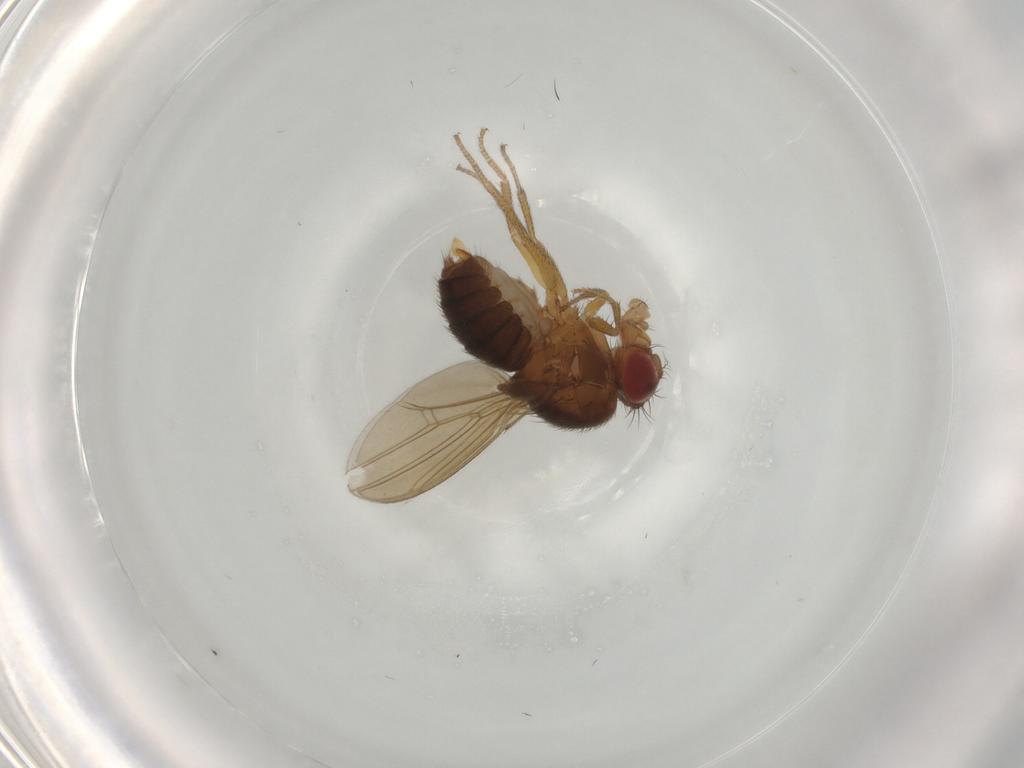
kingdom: Animalia
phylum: Arthropoda
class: Insecta
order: Diptera
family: Drosophilidae
